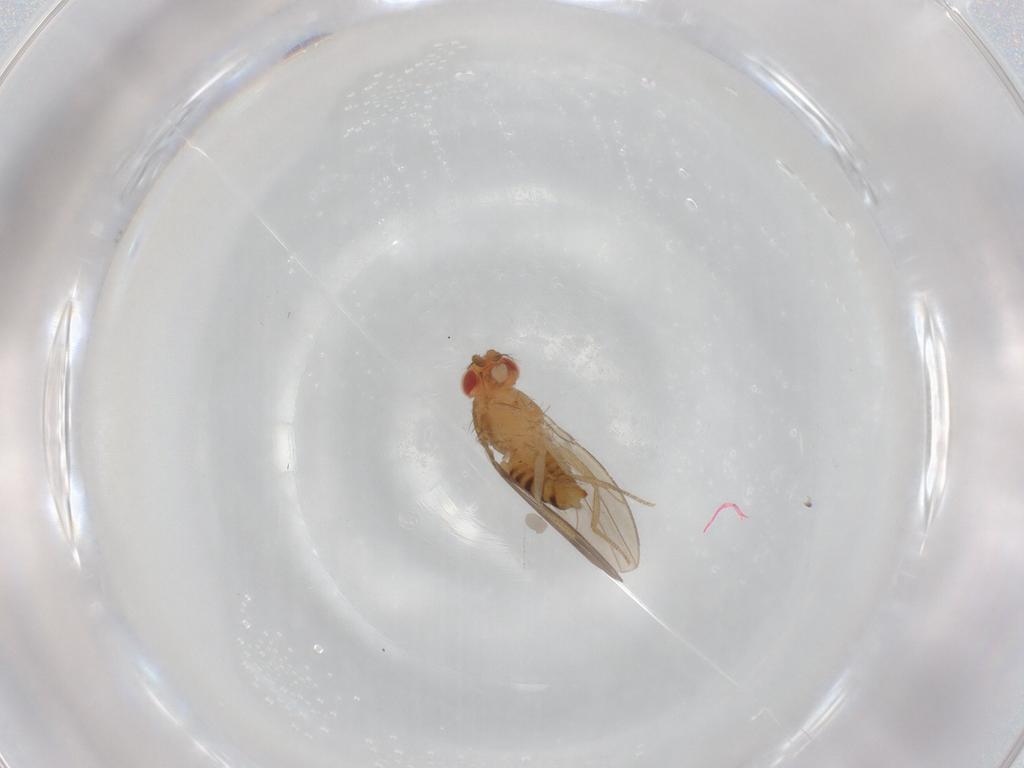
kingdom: Animalia
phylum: Arthropoda
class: Insecta
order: Diptera
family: Drosophilidae
